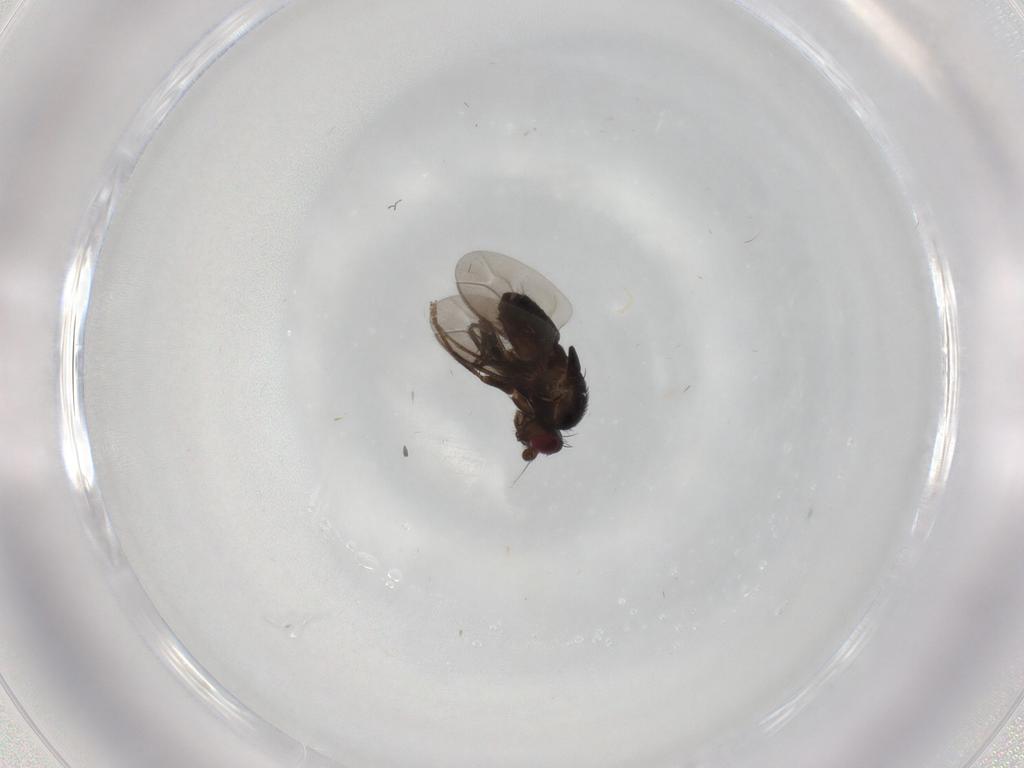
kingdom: Animalia
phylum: Arthropoda
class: Insecta
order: Diptera
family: Sphaeroceridae
